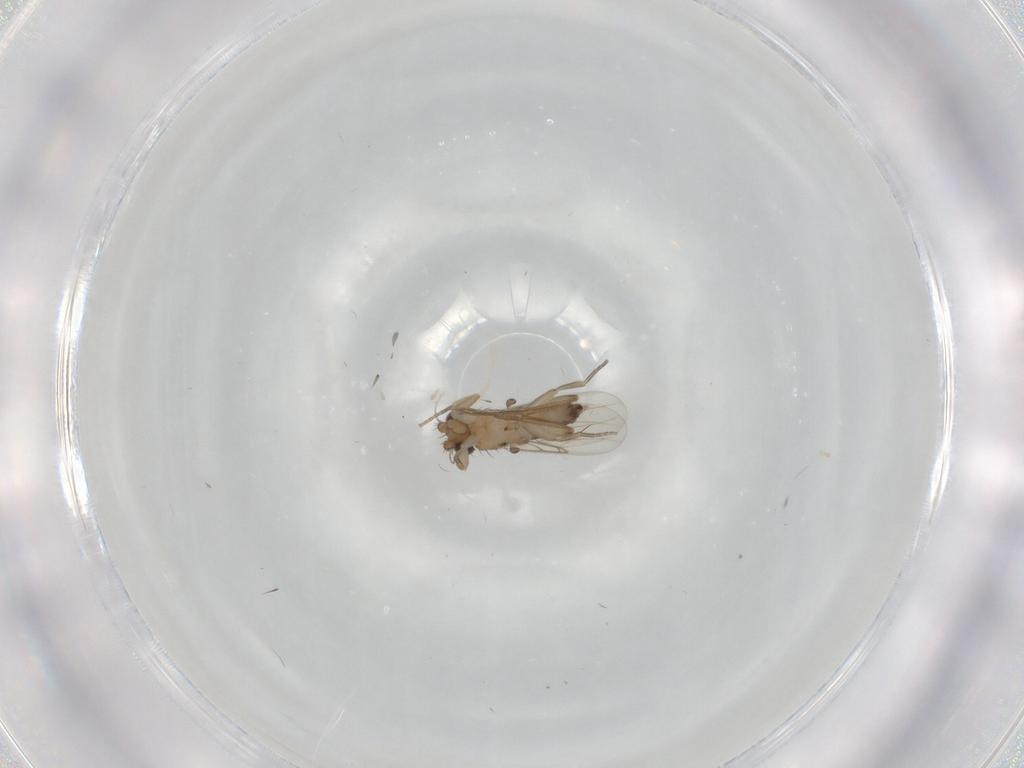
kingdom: Animalia
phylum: Arthropoda
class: Insecta
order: Diptera
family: Phoridae
